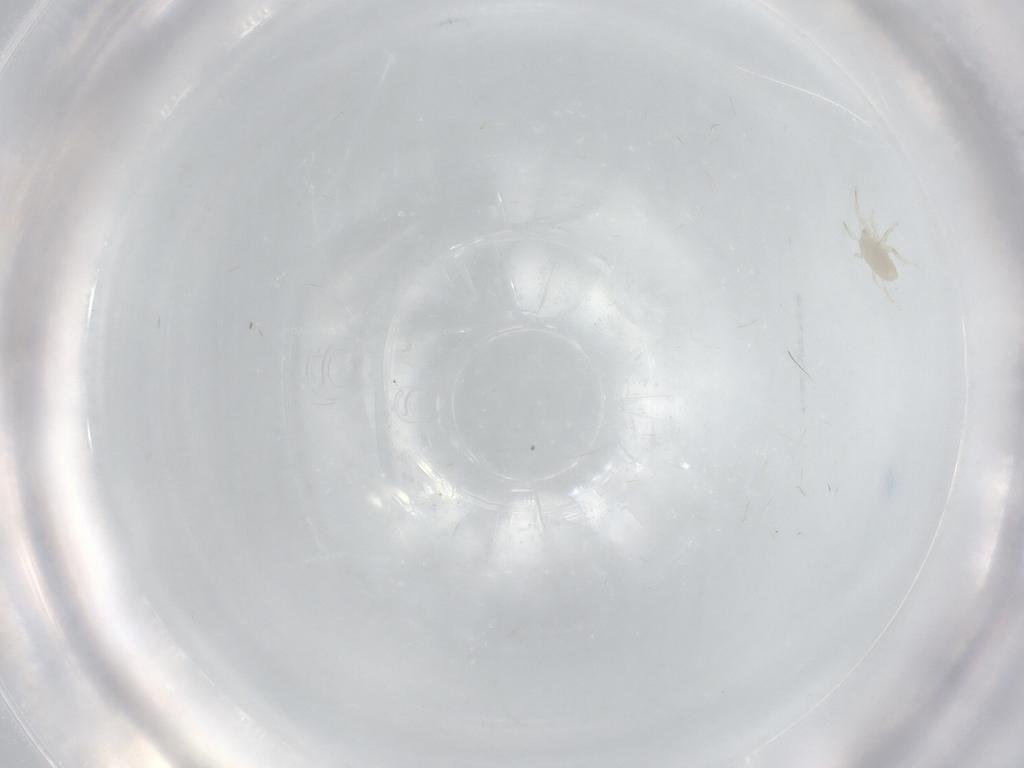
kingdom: Animalia
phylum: Arthropoda
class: Arachnida
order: Mesostigmata
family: Blattisociidae
